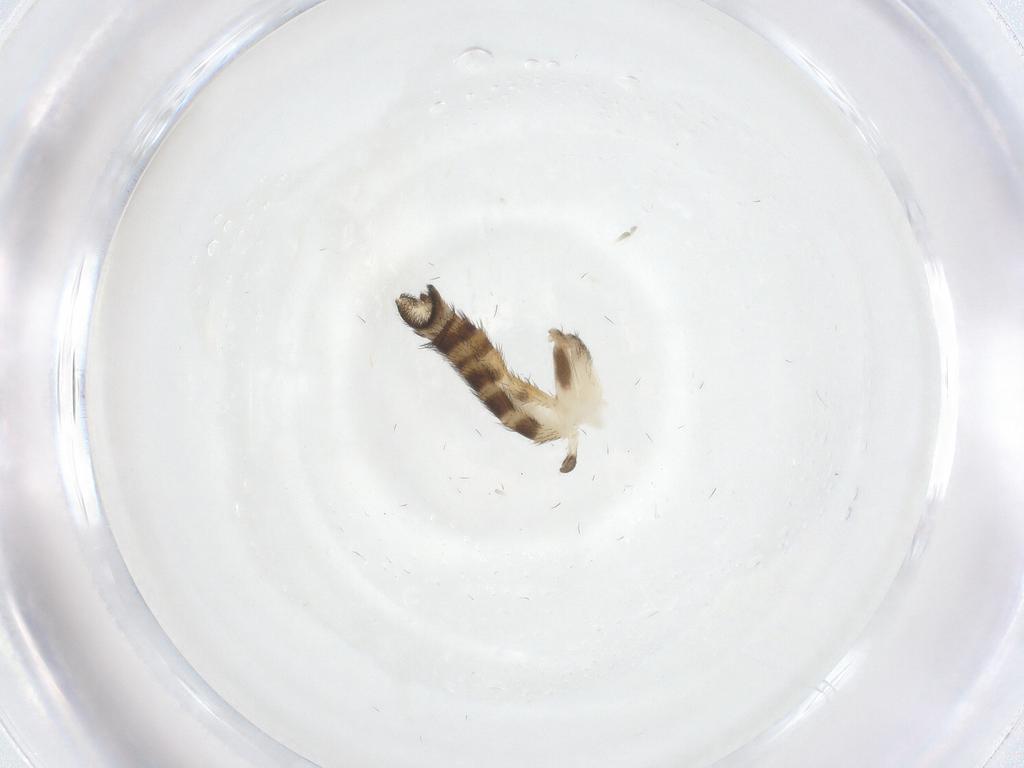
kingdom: Animalia
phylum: Arthropoda
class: Insecta
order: Diptera
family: Keroplatidae
